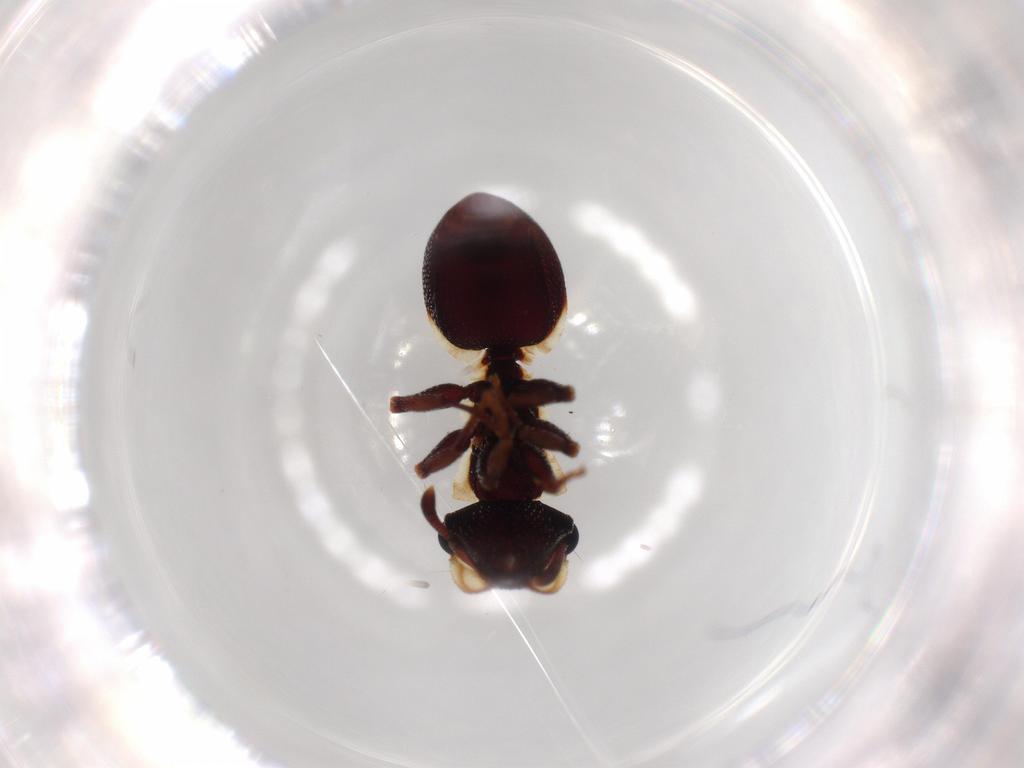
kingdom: Animalia
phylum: Arthropoda
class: Insecta
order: Hymenoptera
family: Formicidae
